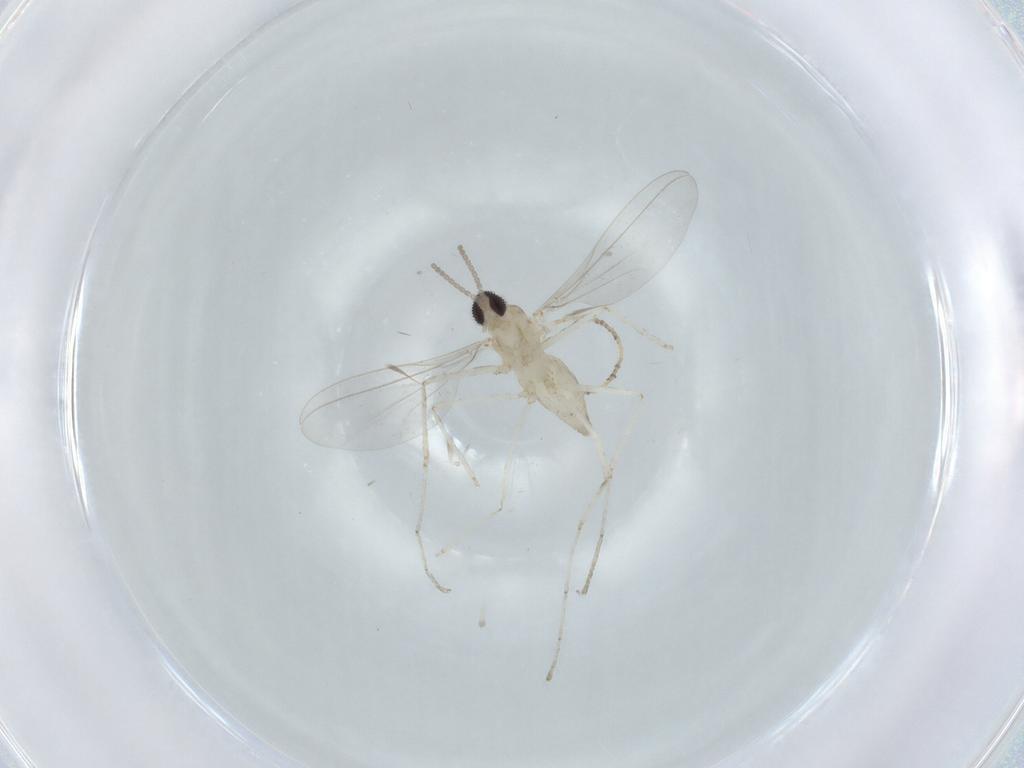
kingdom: Animalia
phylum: Arthropoda
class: Insecta
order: Diptera
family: Cecidomyiidae
